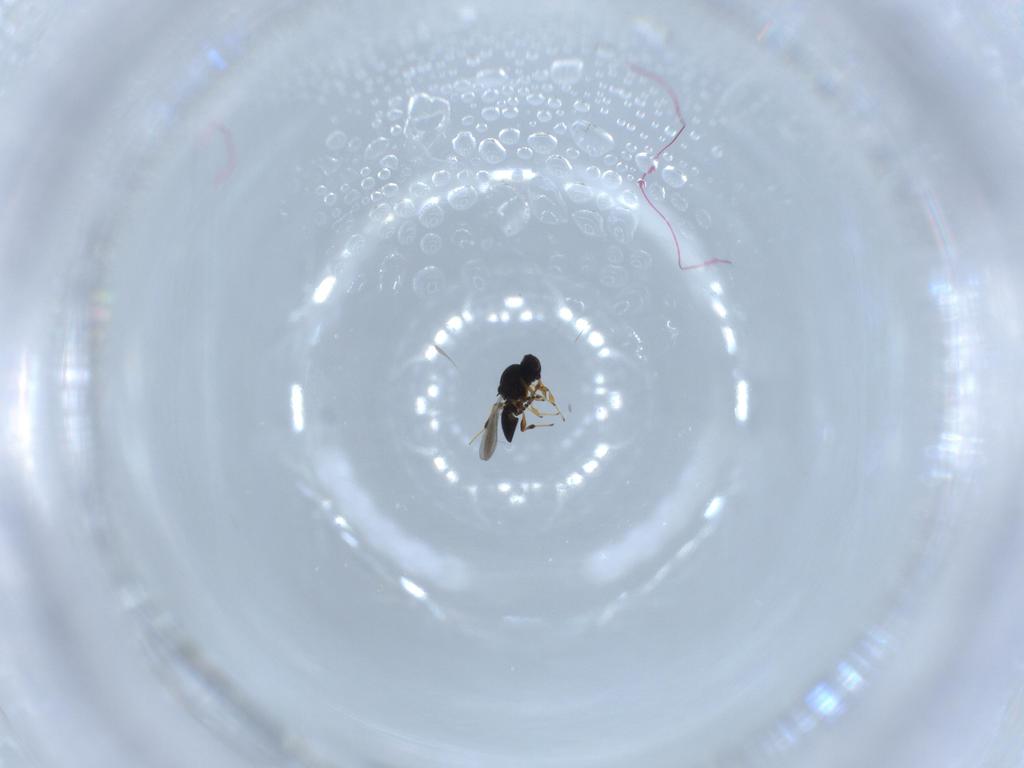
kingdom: Animalia
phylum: Arthropoda
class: Insecta
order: Hymenoptera
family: Platygastridae
